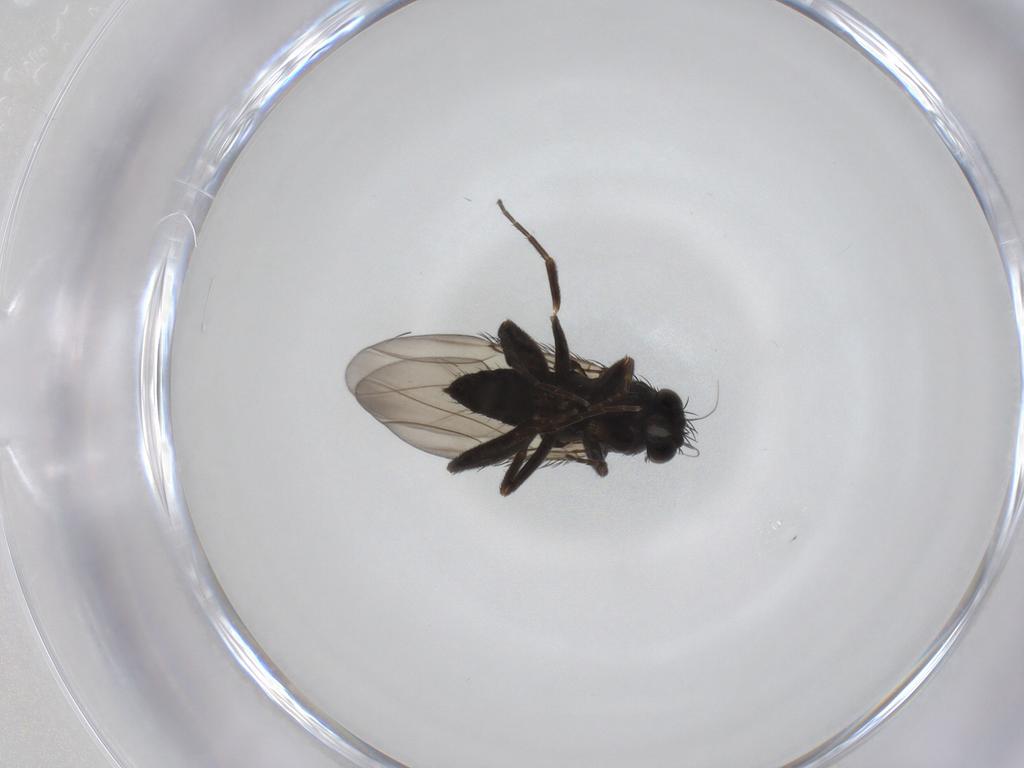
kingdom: Animalia
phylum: Arthropoda
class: Insecta
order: Diptera
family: Phoridae
